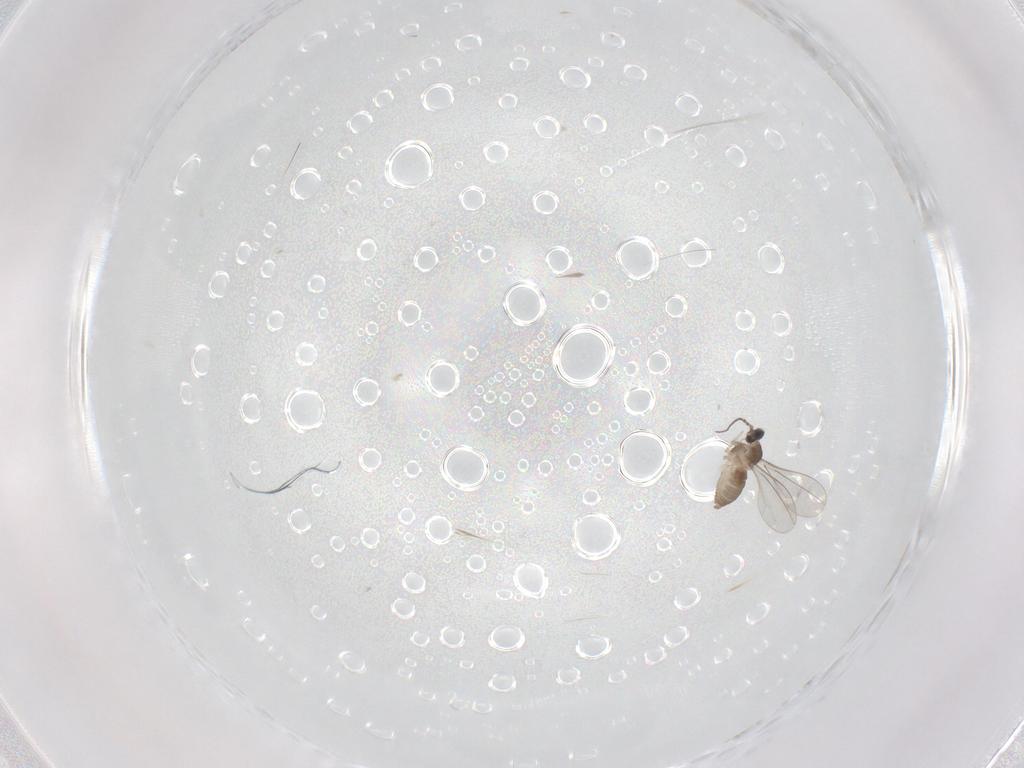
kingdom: Animalia
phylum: Arthropoda
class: Insecta
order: Diptera
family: Phoridae
